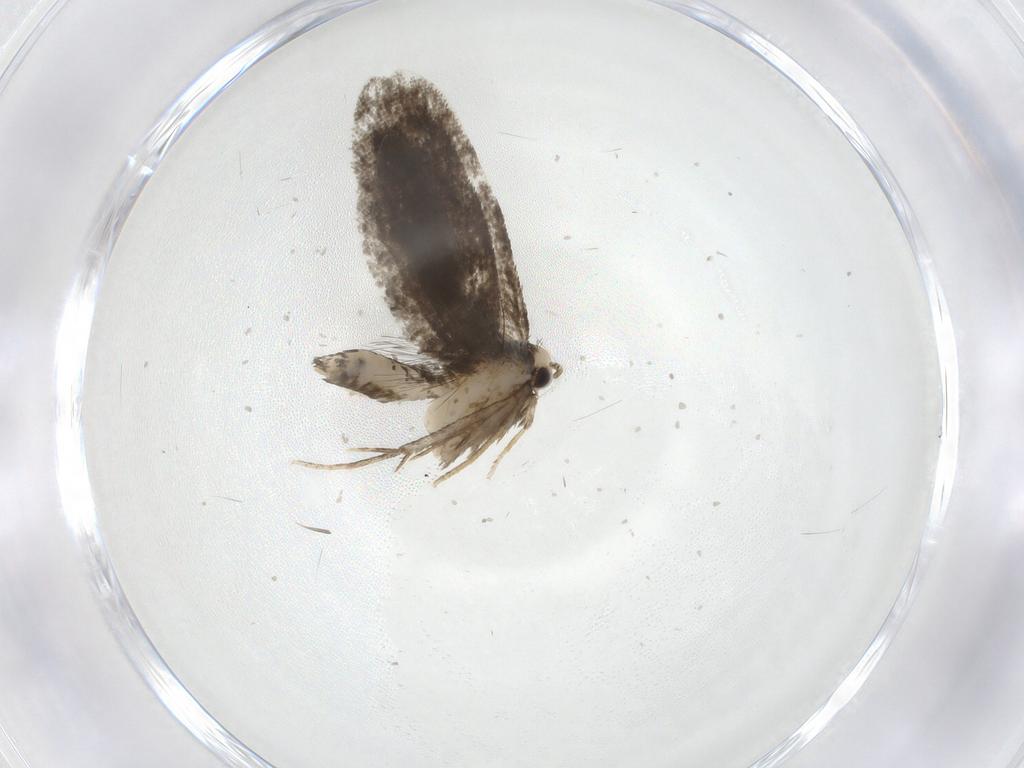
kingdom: Animalia
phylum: Arthropoda
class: Insecta
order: Lepidoptera
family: Psychidae
